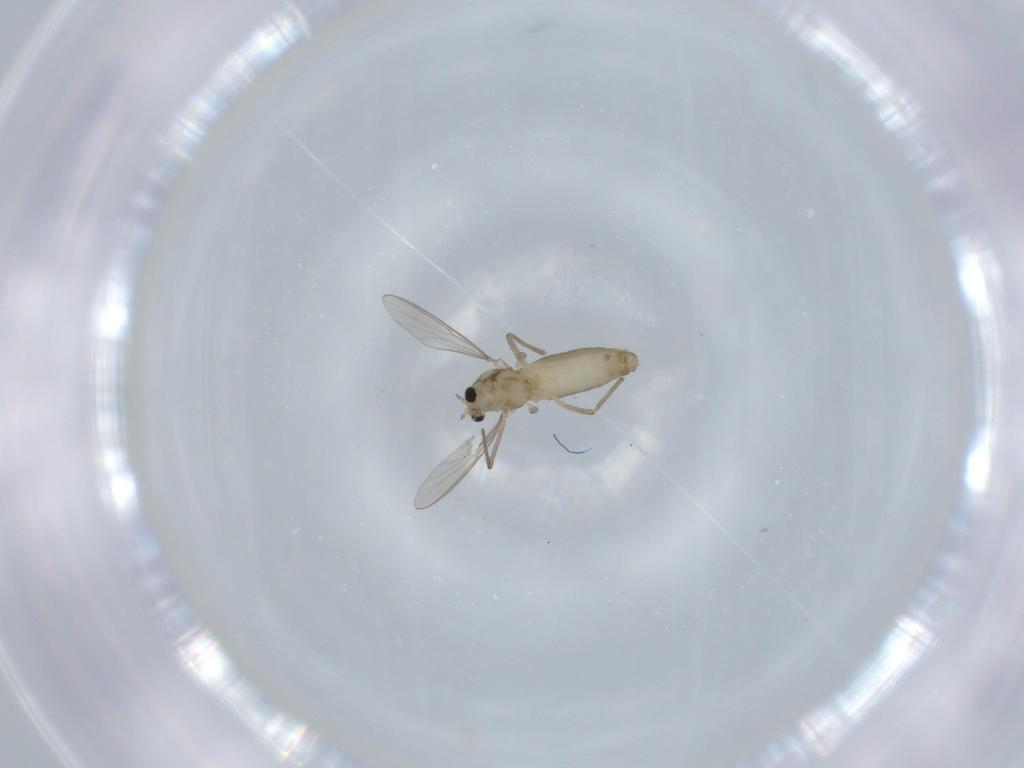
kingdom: Animalia
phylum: Arthropoda
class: Insecta
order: Diptera
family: Chironomidae
